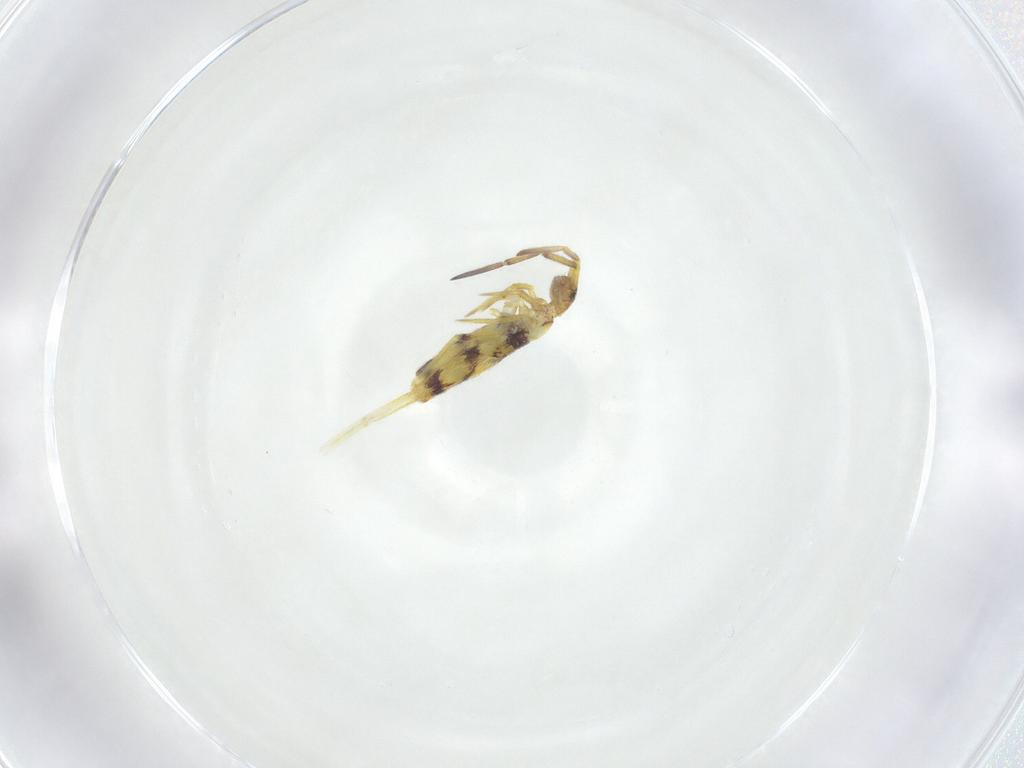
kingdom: Animalia
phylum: Arthropoda
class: Collembola
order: Entomobryomorpha
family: Entomobryidae
